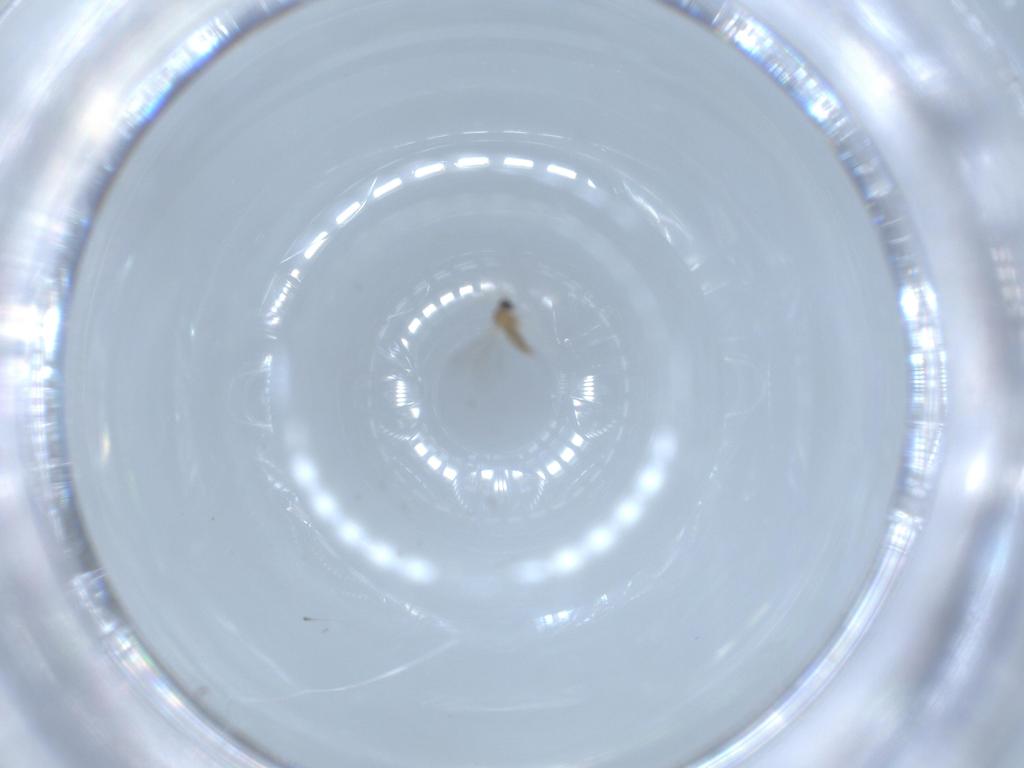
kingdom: Animalia
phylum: Arthropoda
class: Insecta
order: Diptera
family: Chironomidae
